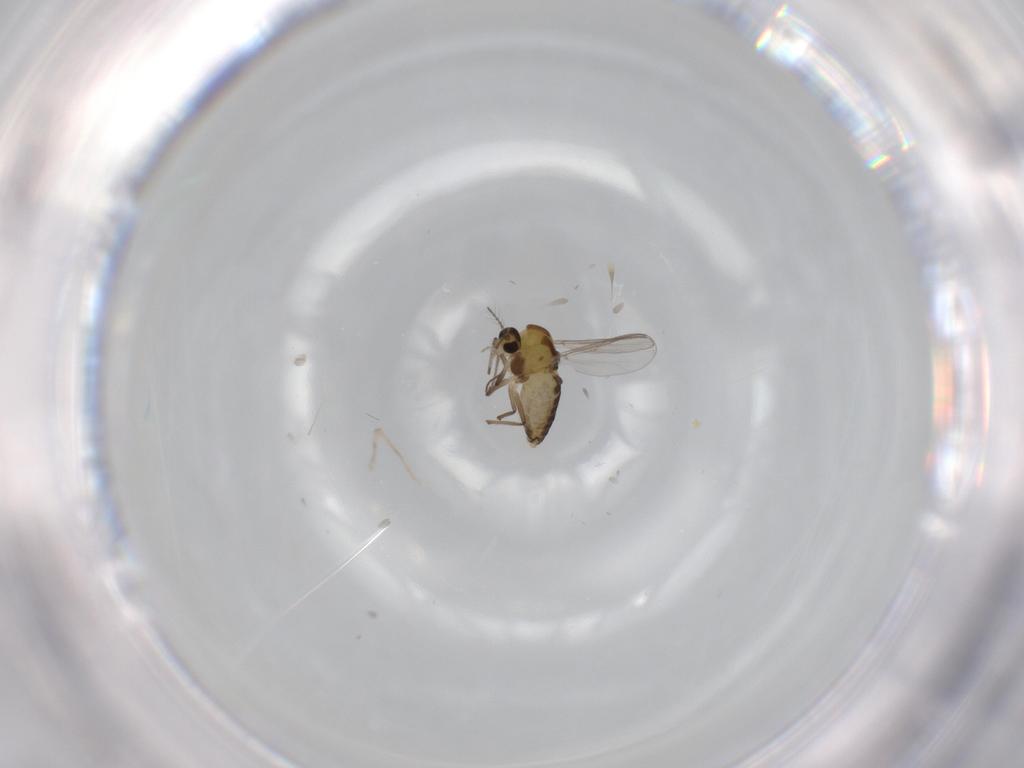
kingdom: Animalia
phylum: Arthropoda
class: Insecta
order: Diptera
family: Chironomidae
